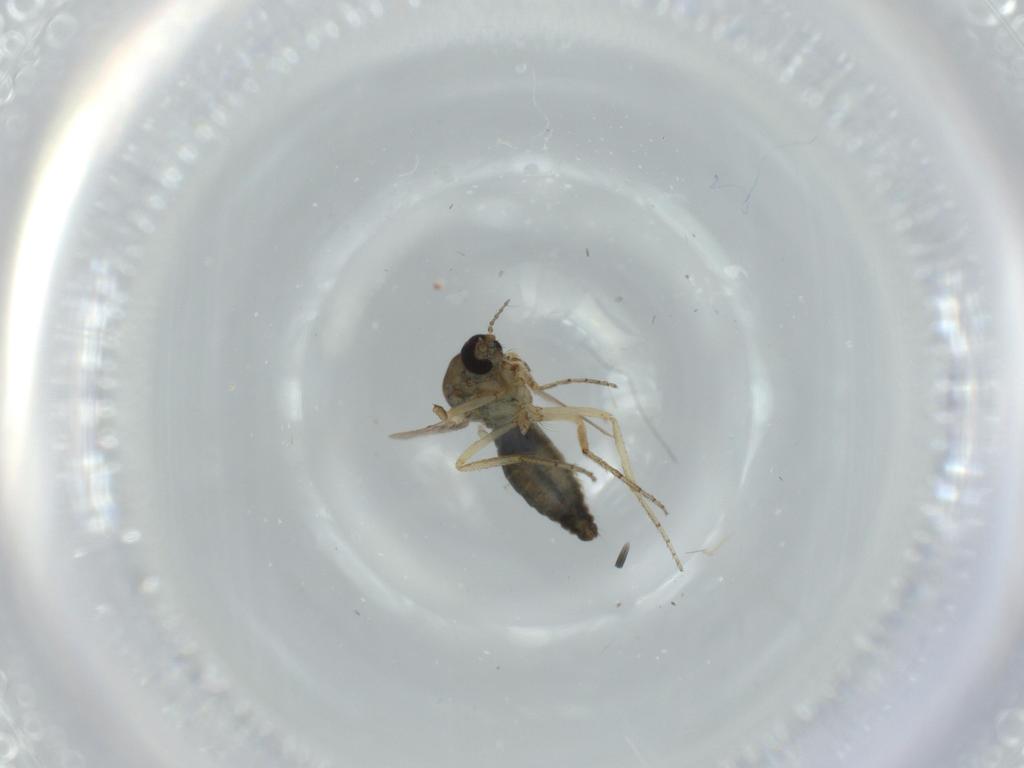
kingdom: Animalia
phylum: Arthropoda
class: Insecta
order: Diptera
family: Ceratopogonidae
